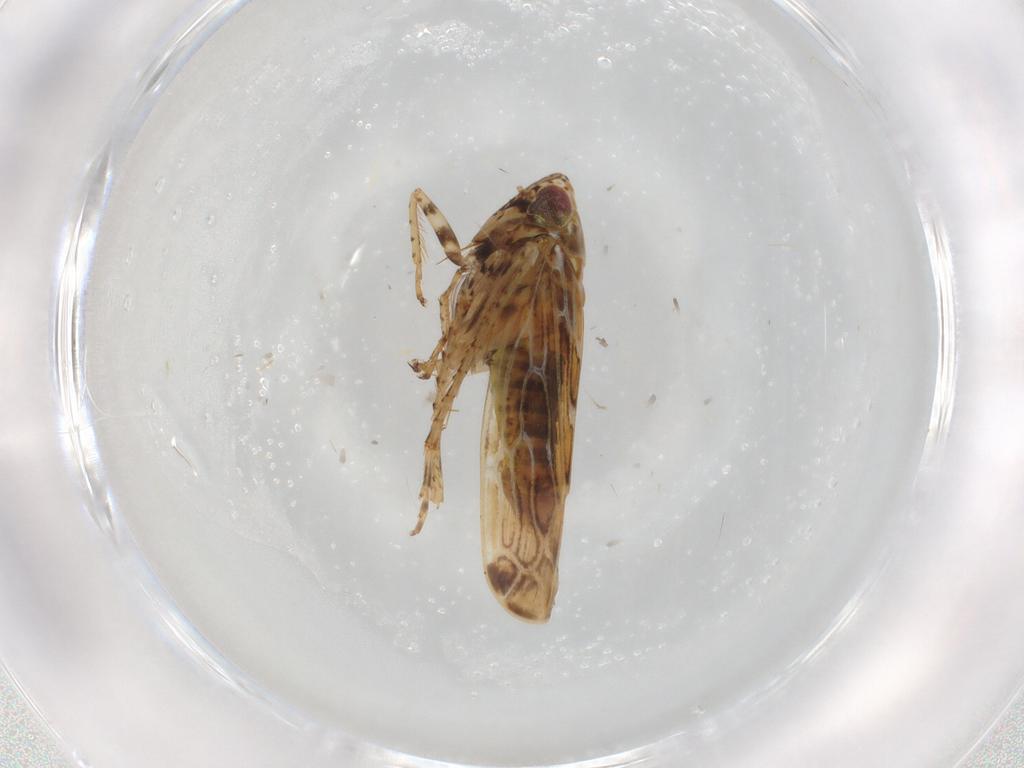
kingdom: Animalia
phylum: Arthropoda
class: Insecta
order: Hemiptera
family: Cicadellidae
